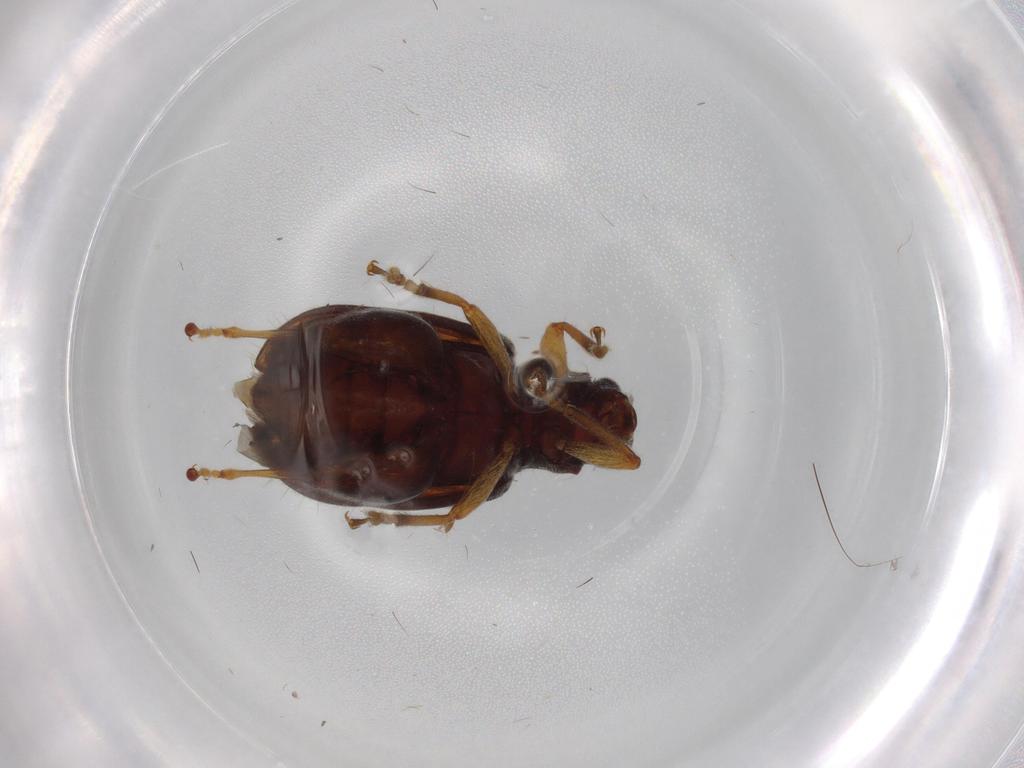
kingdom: Animalia
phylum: Arthropoda
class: Insecta
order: Coleoptera
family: Chrysomelidae
